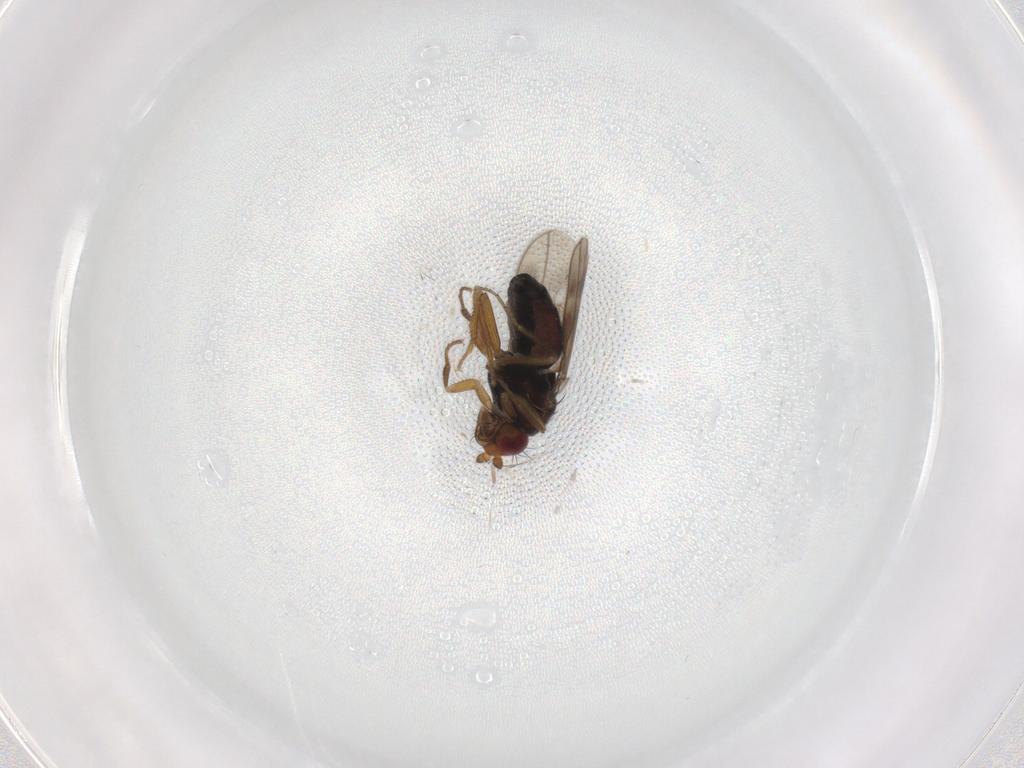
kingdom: Animalia
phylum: Arthropoda
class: Insecta
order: Diptera
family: Sphaeroceridae
